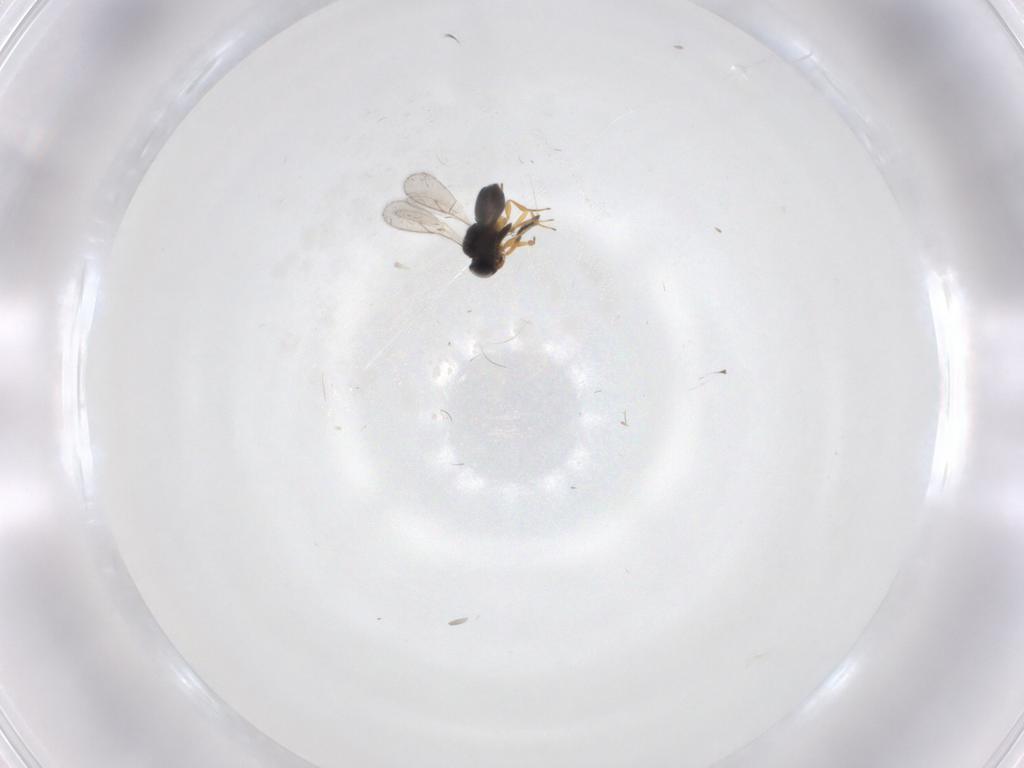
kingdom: Animalia
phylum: Arthropoda
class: Insecta
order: Hymenoptera
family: Scelionidae
